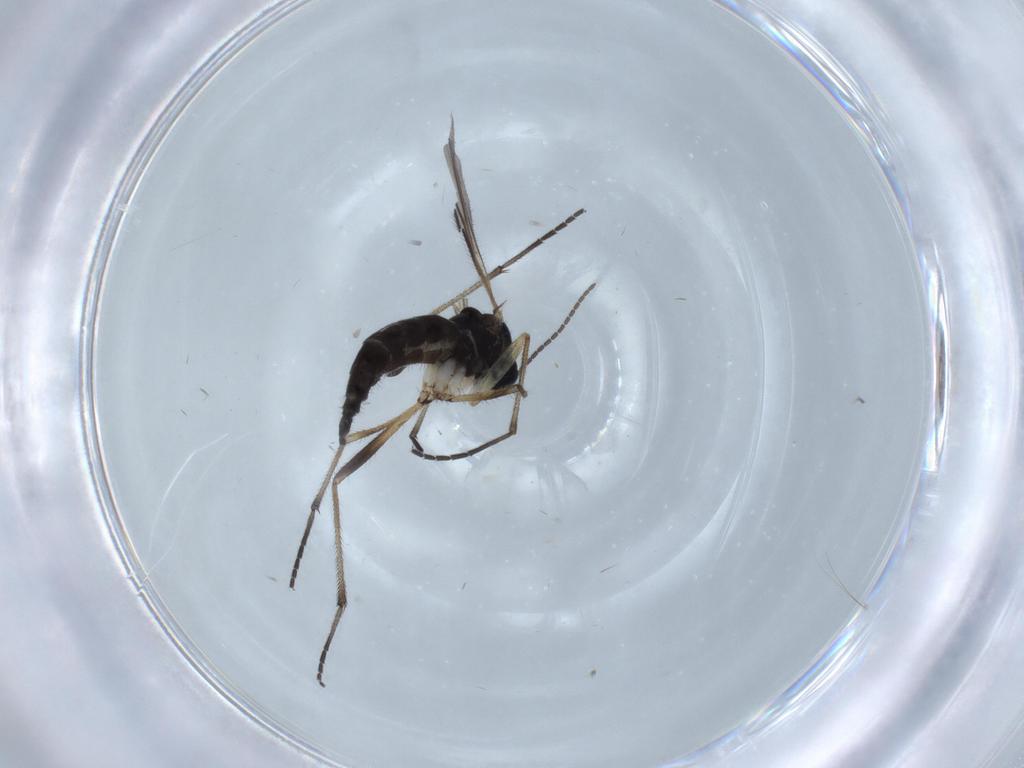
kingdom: Animalia
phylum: Arthropoda
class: Insecta
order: Diptera
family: Sciaridae
